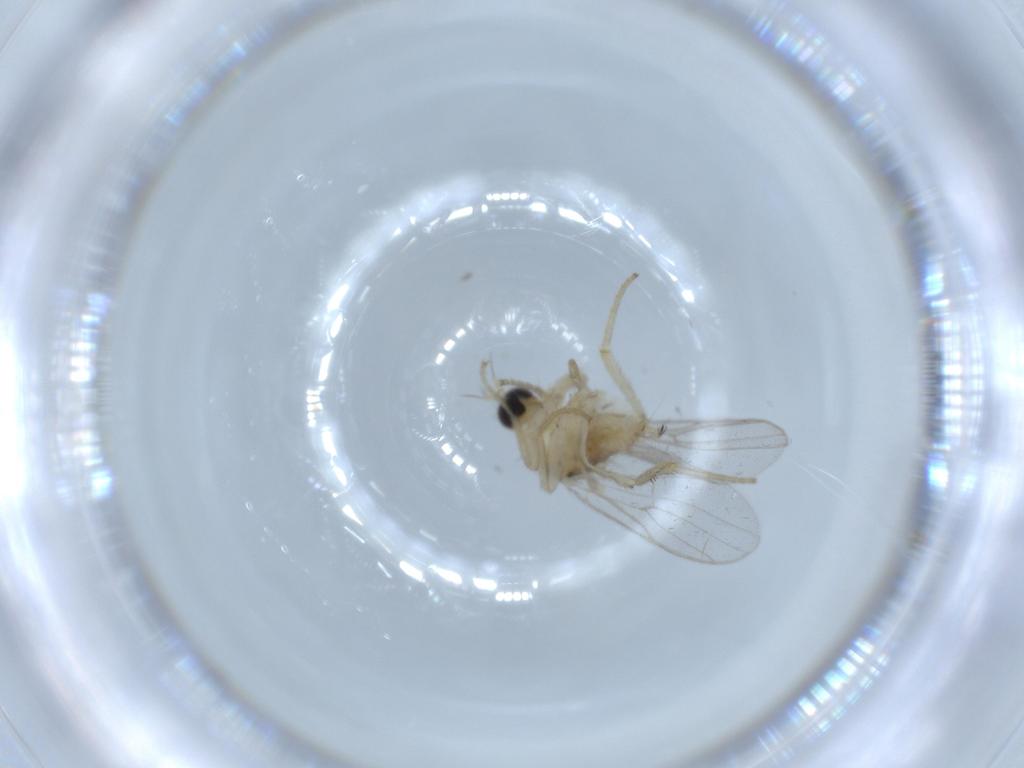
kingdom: Animalia
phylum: Arthropoda
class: Insecta
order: Diptera
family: Hybotidae
